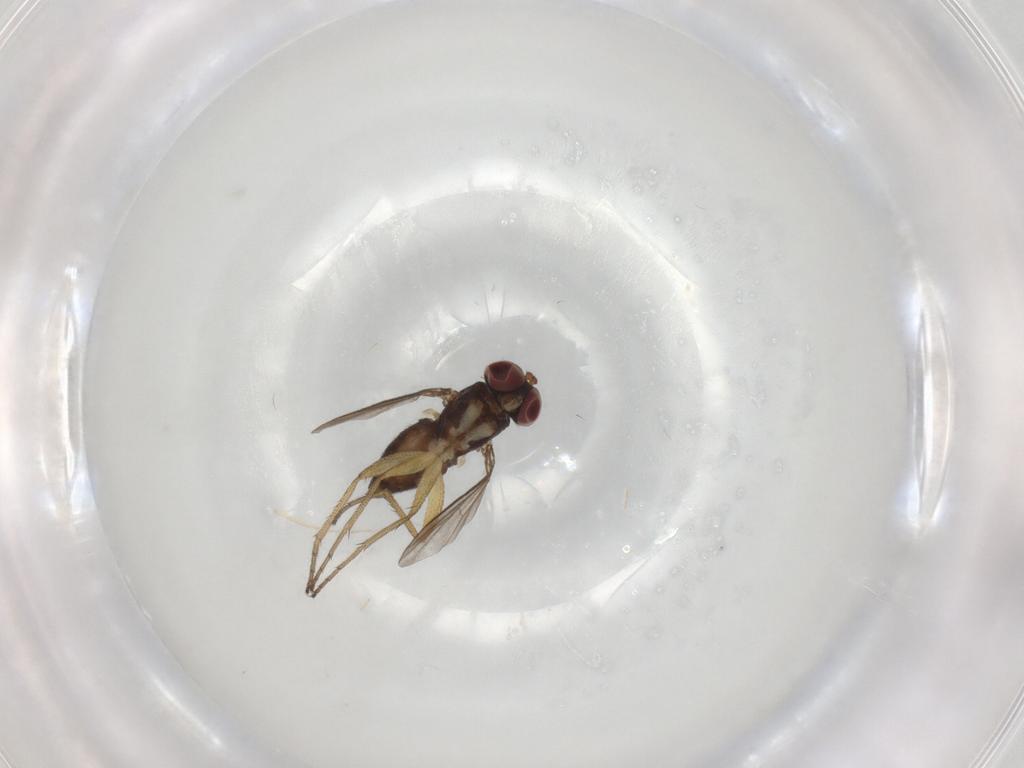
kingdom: Animalia
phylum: Arthropoda
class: Insecta
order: Diptera
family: Dolichopodidae
